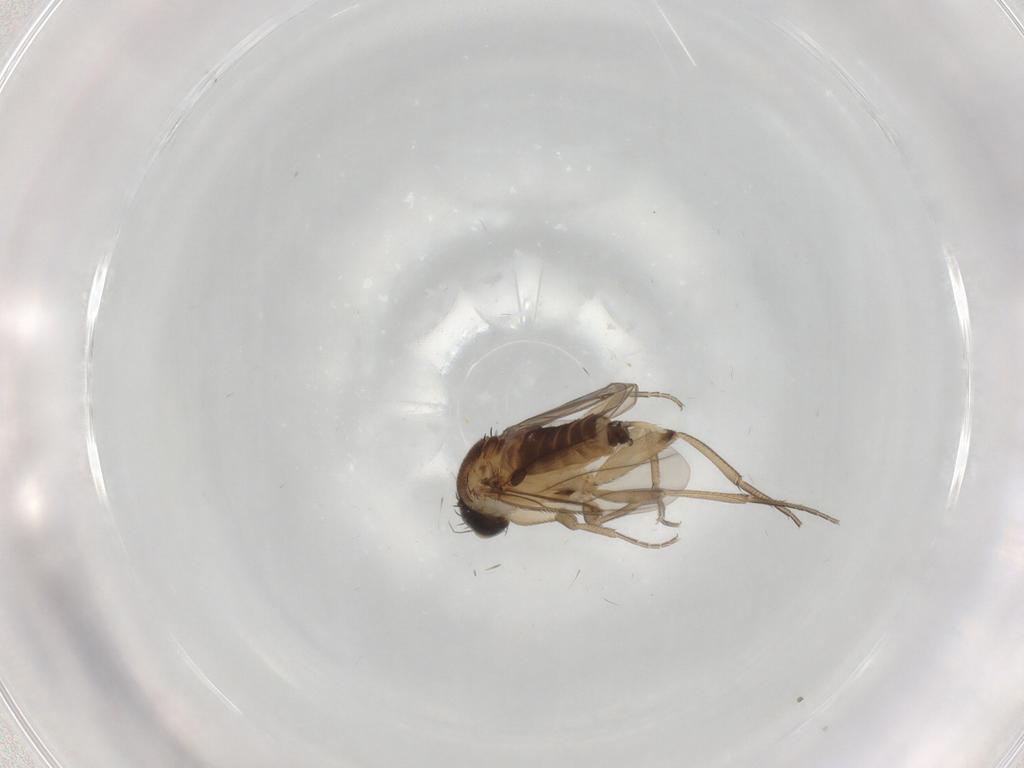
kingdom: Animalia
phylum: Arthropoda
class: Insecta
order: Diptera
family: Phoridae
